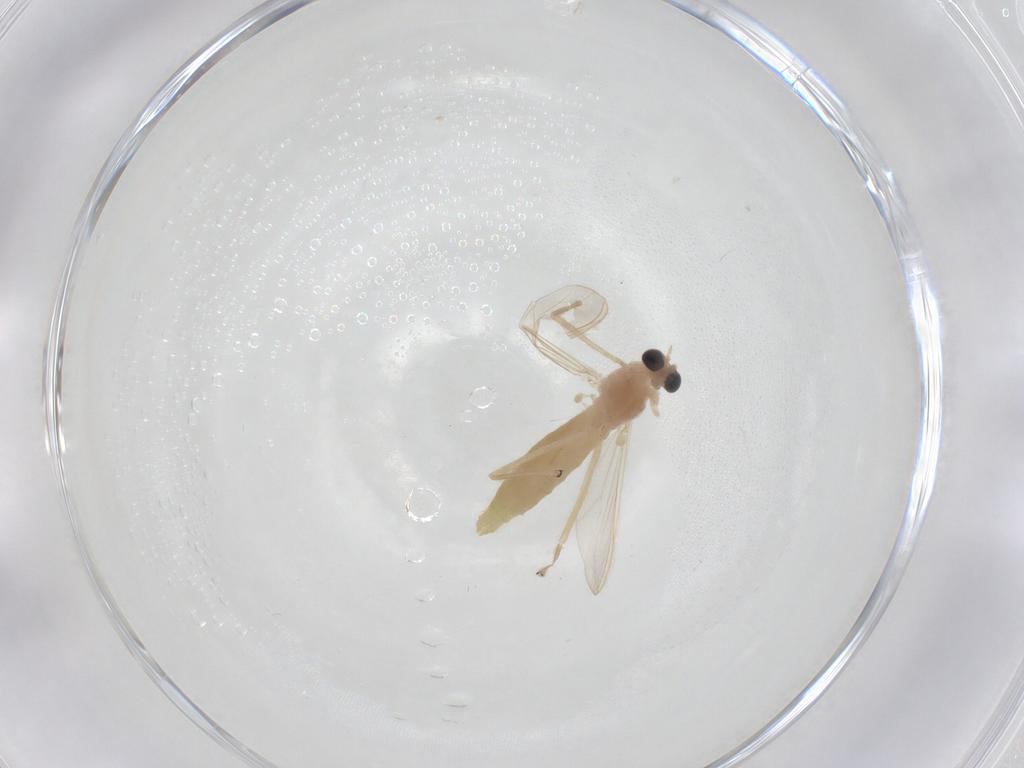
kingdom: Animalia
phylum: Arthropoda
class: Insecta
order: Diptera
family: Chironomidae
